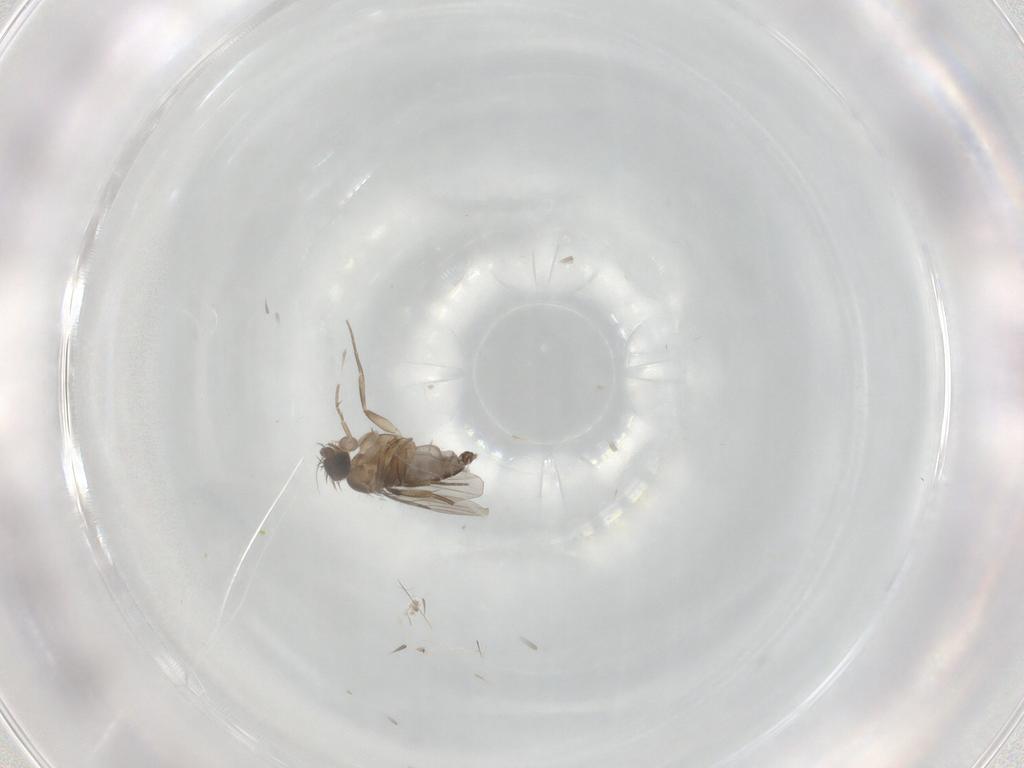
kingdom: Animalia
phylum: Arthropoda
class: Insecta
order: Diptera
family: Phoridae
